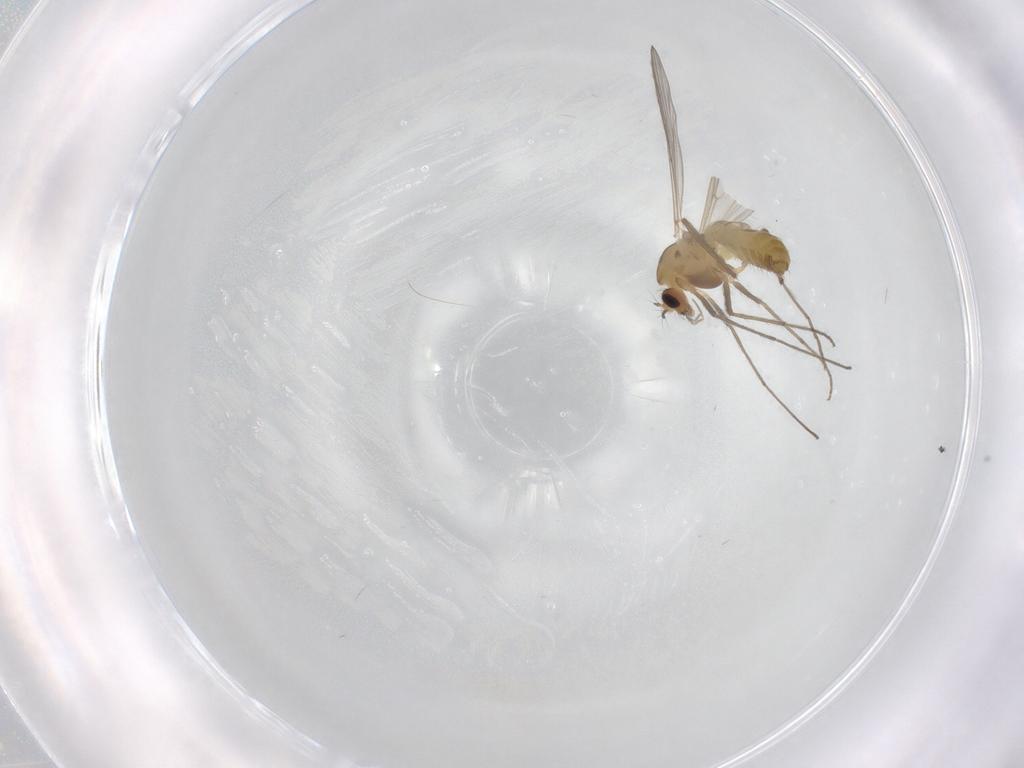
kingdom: Animalia
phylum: Arthropoda
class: Insecta
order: Diptera
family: Chironomidae
